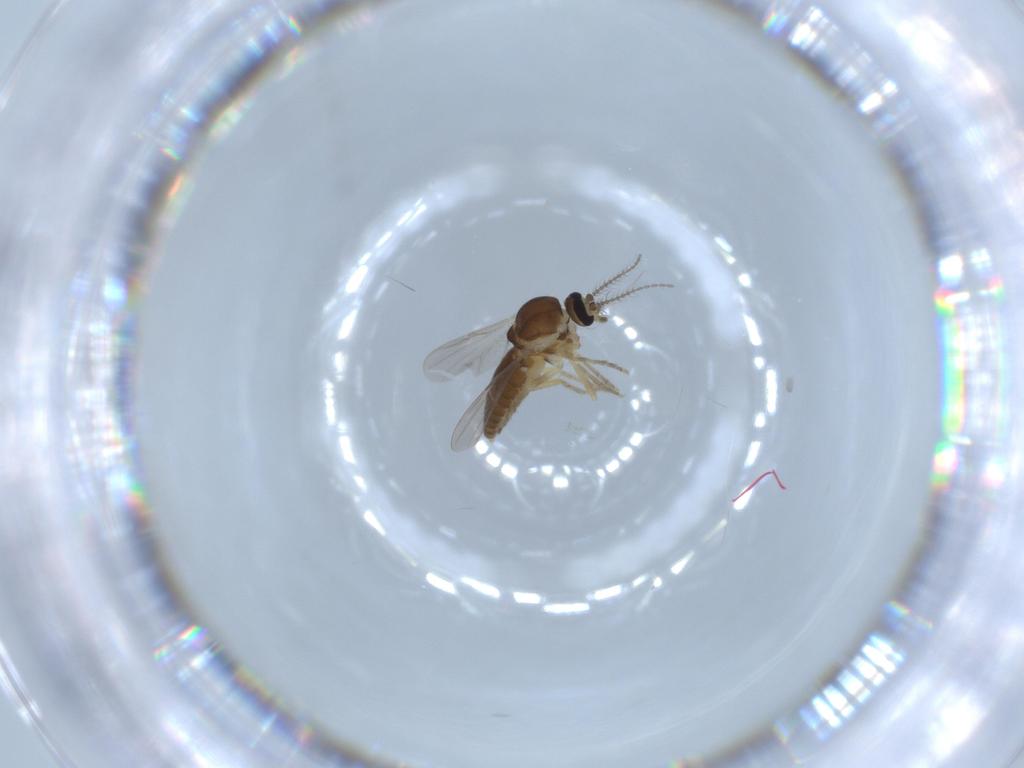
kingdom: Animalia
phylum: Arthropoda
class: Insecta
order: Diptera
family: Ceratopogonidae
